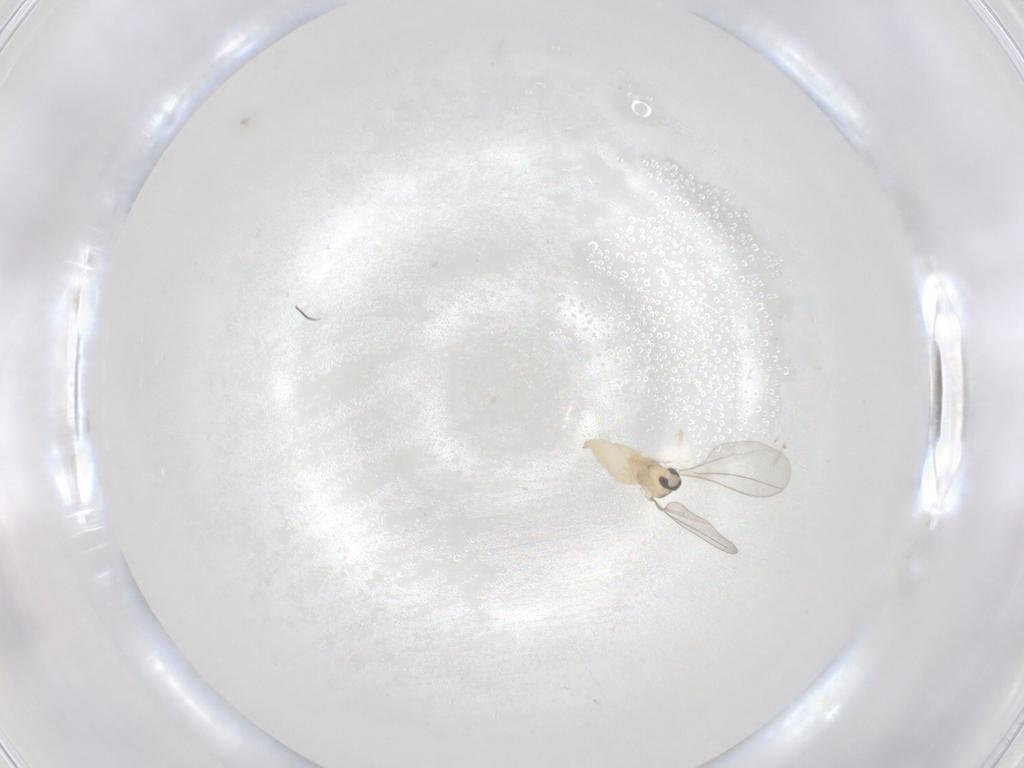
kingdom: Animalia
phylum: Arthropoda
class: Insecta
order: Diptera
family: Cecidomyiidae
